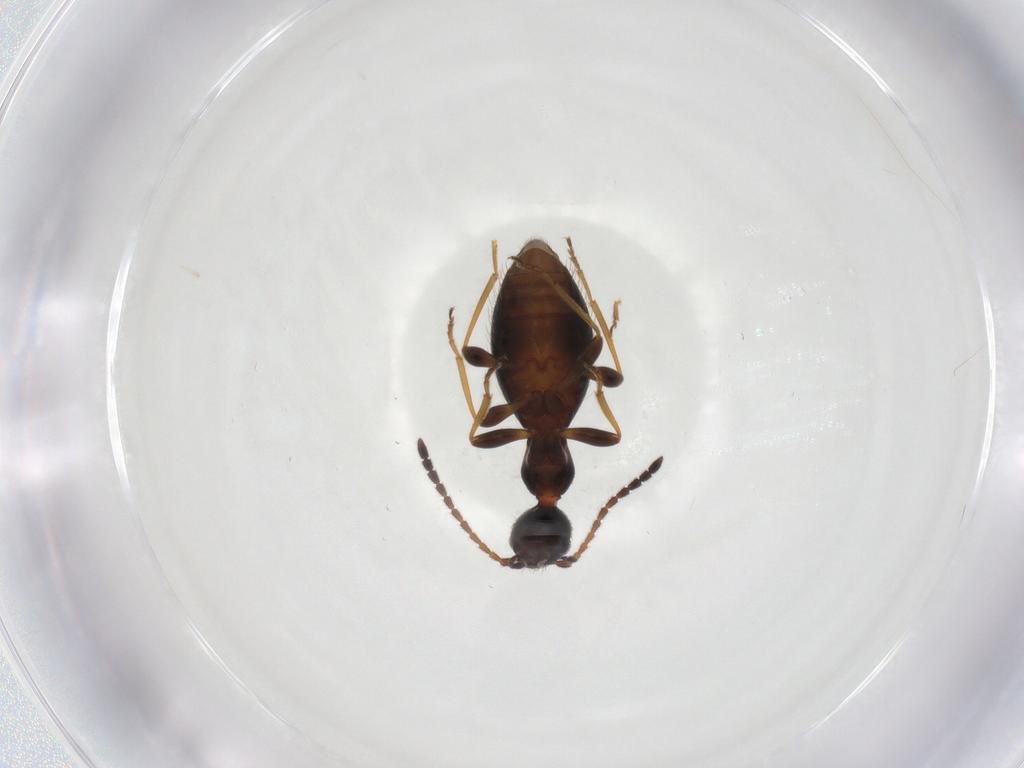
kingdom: Animalia
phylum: Arthropoda
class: Insecta
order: Coleoptera
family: Anthicidae
